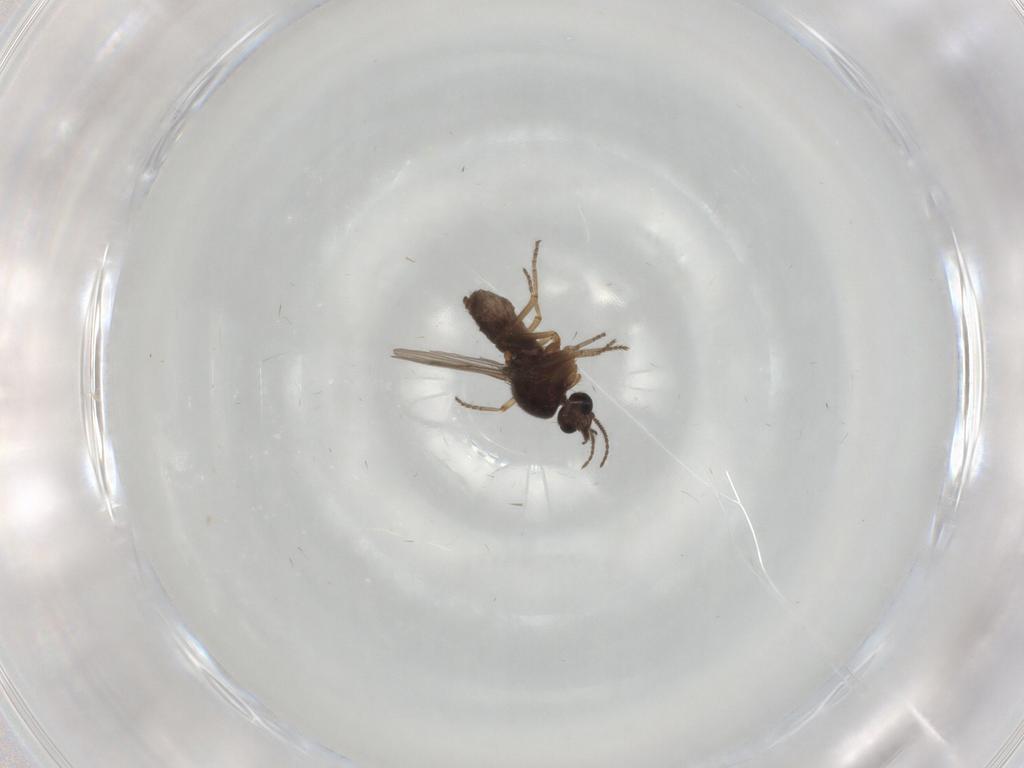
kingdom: Animalia
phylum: Arthropoda
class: Insecta
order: Diptera
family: Ceratopogonidae
